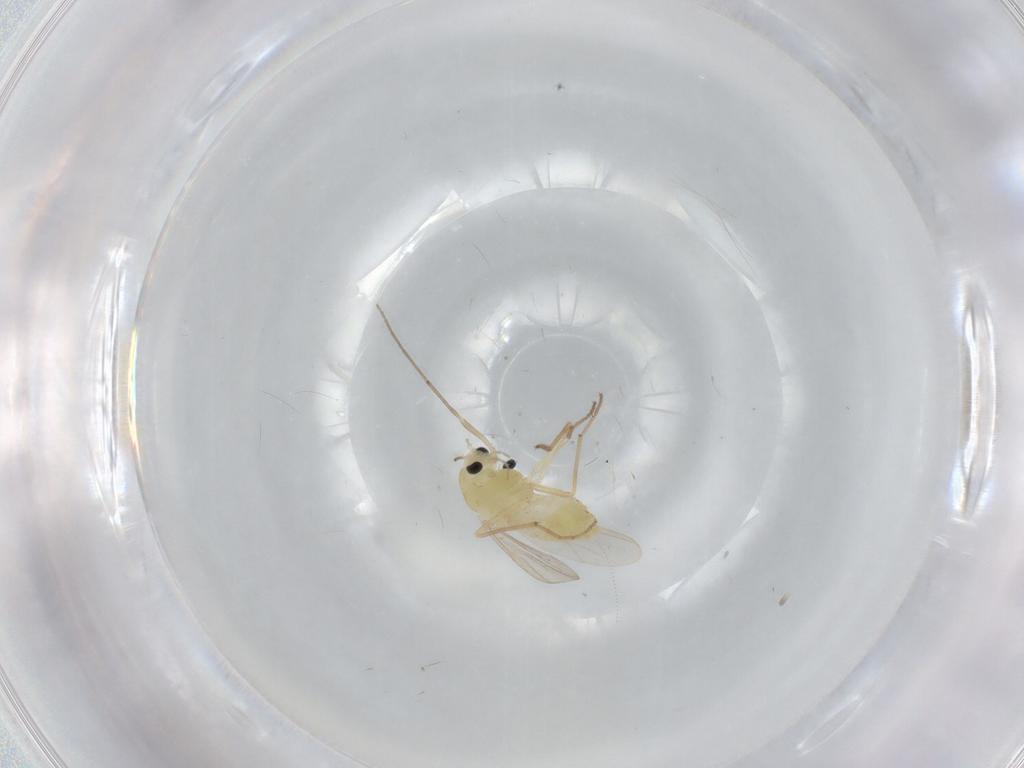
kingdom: Animalia
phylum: Arthropoda
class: Insecta
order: Diptera
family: Chironomidae
